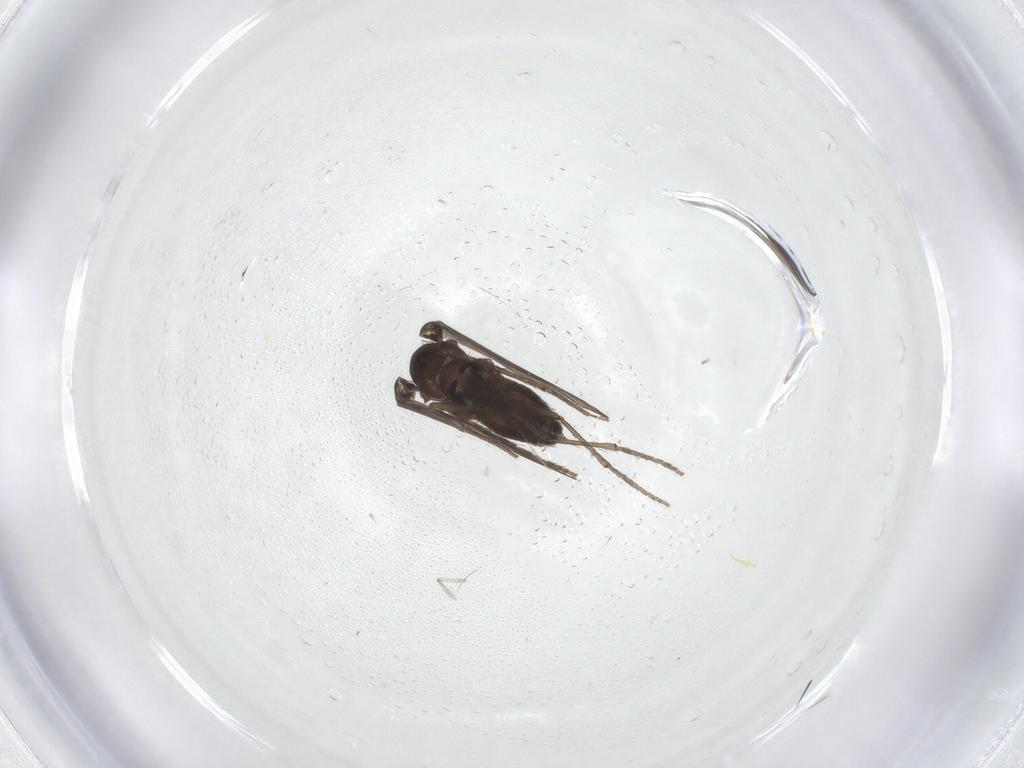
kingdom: Animalia
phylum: Arthropoda
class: Insecta
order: Diptera
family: Psychodidae
